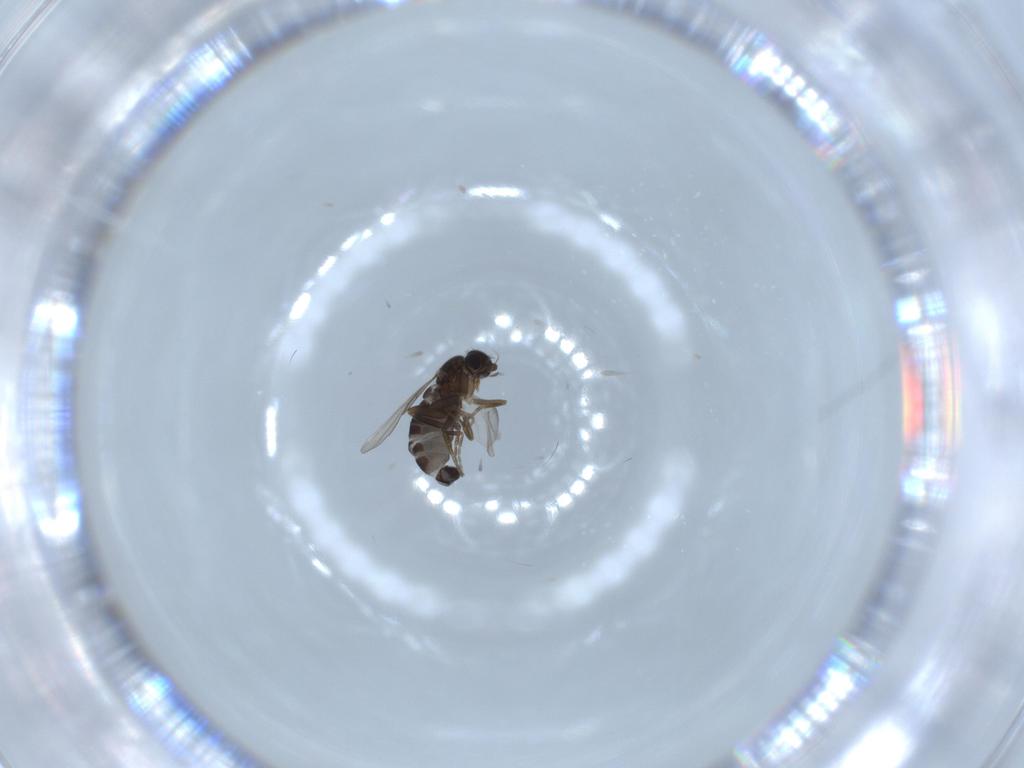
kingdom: Animalia
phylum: Arthropoda
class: Insecta
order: Diptera
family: Phoridae
